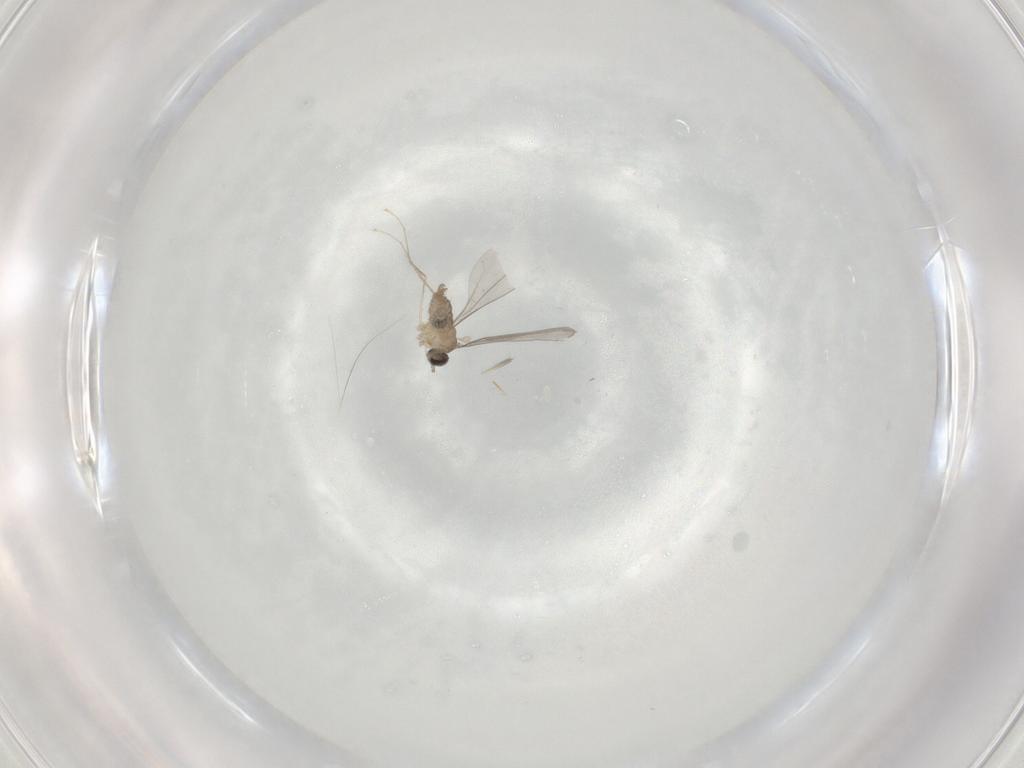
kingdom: Animalia
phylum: Arthropoda
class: Insecta
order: Diptera
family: Cecidomyiidae
